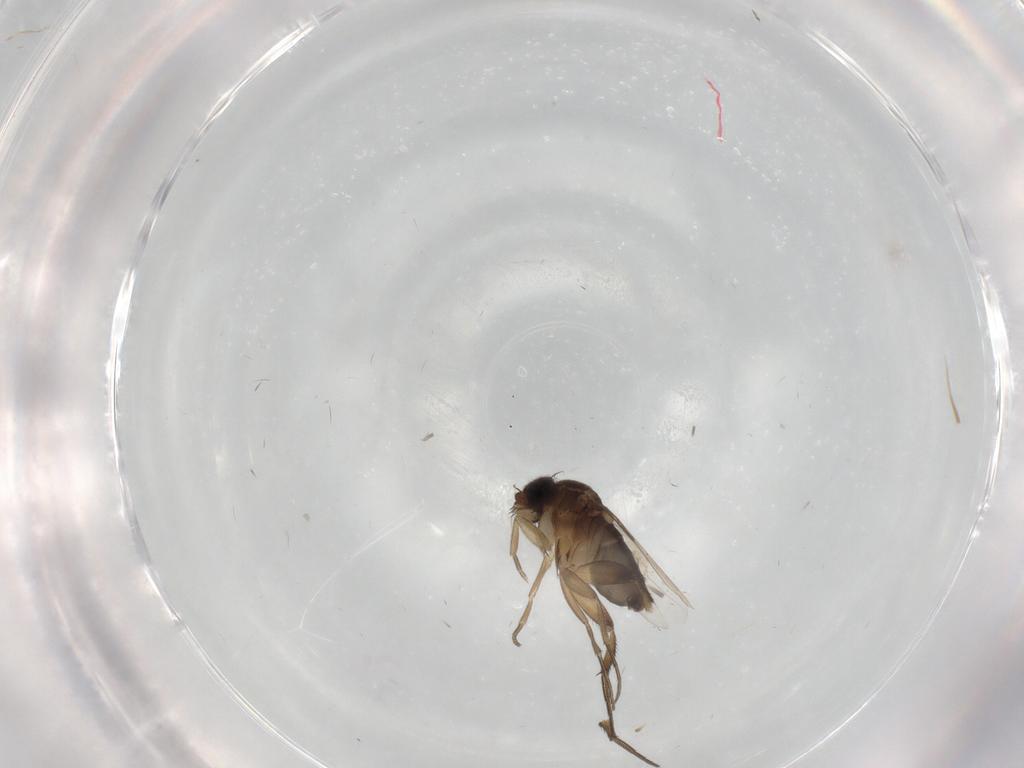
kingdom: Animalia
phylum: Arthropoda
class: Insecta
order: Diptera
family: Phoridae
